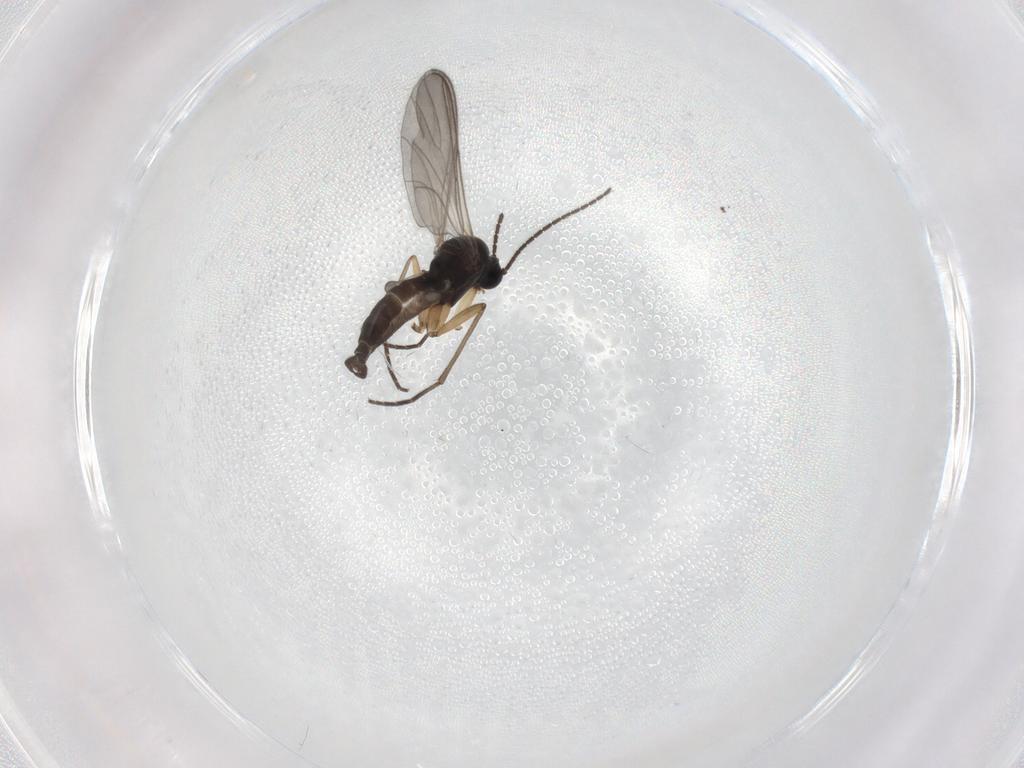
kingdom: Animalia
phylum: Arthropoda
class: Insecta
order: Diptera
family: Sciaridae
